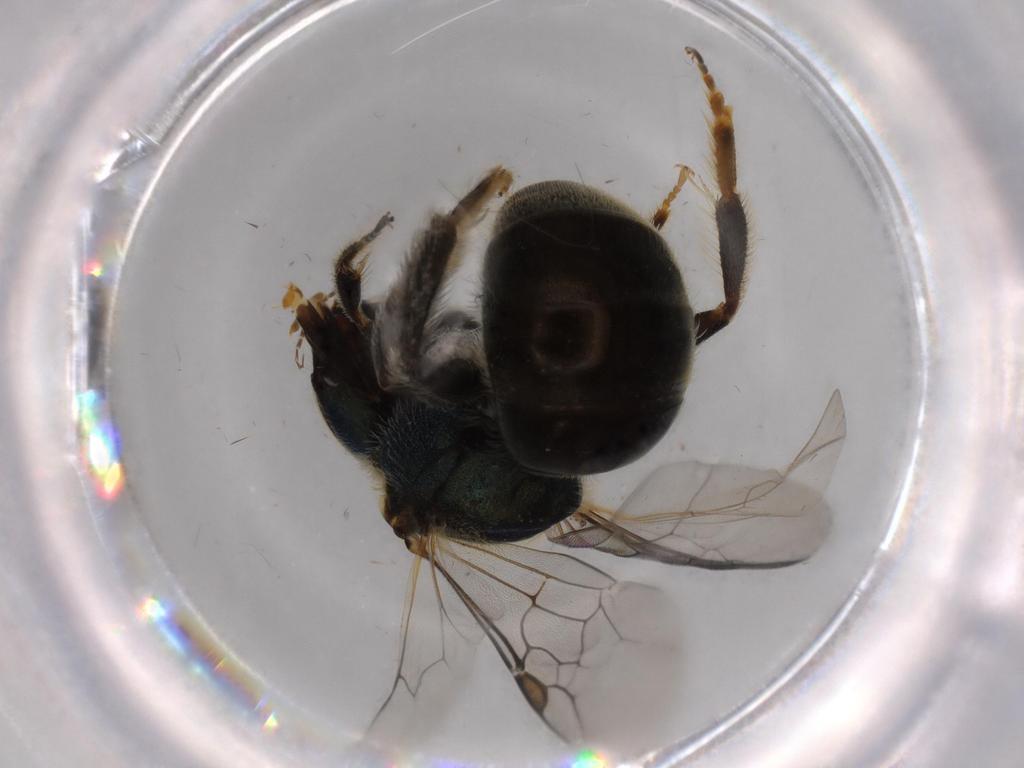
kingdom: Animalia
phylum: Arthropoda
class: Insecta
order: Hymenoptera
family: Halictidae
